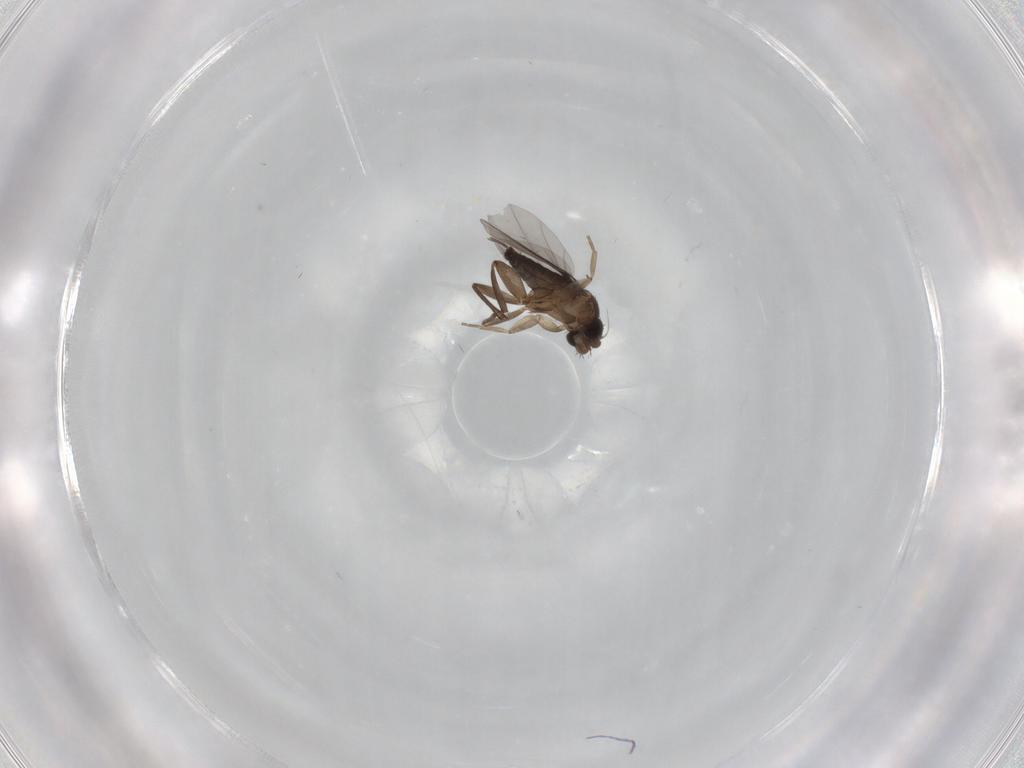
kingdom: Animalia
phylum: Arthropoda
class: Insecta
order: Diptera
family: Phoridae
